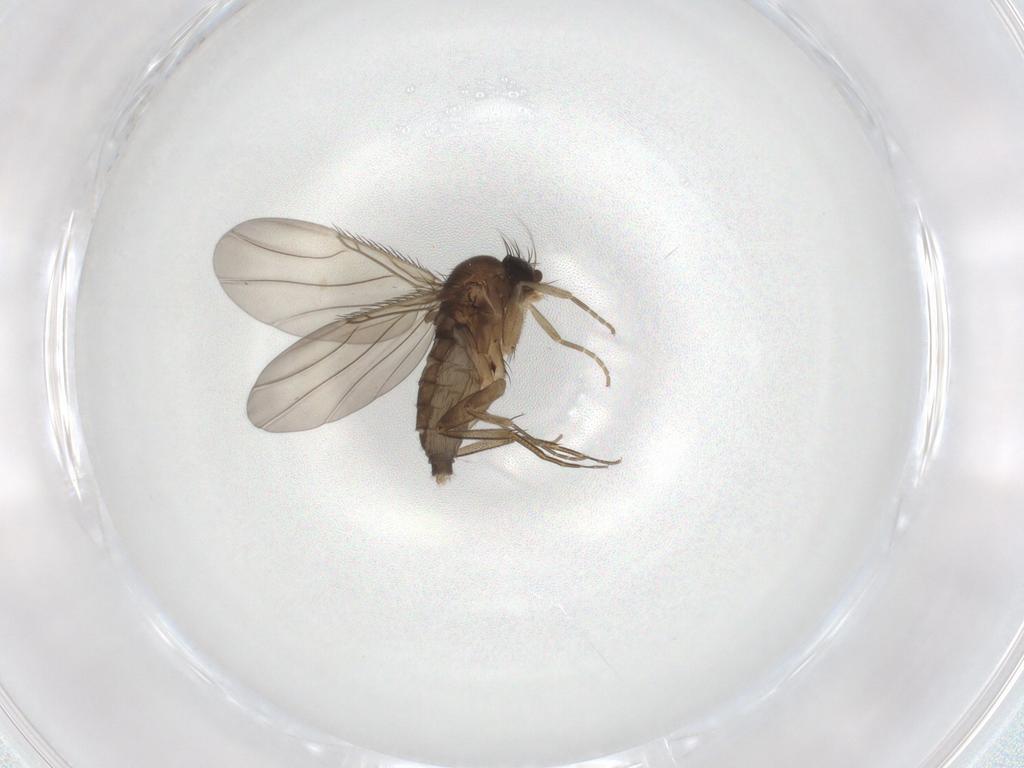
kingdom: Animalia
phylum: Arthropoda
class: Insecta
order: Diptera
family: Phoridae
